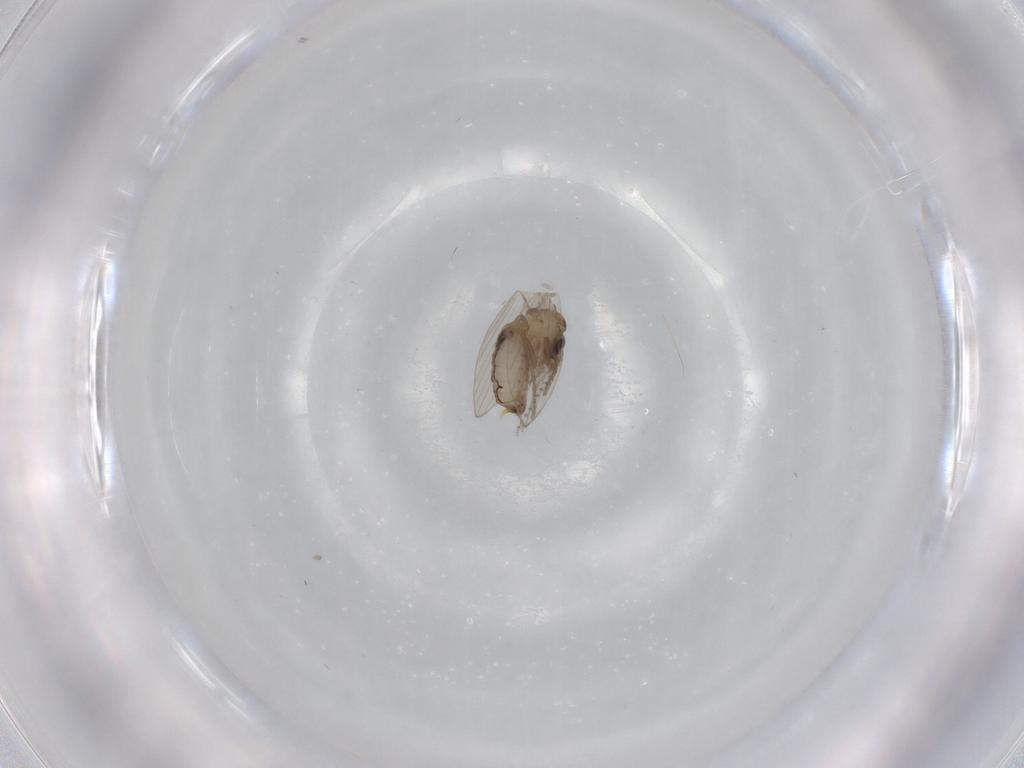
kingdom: Animalia
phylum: Arthropoda
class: Insecta
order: Diptera
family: Psychodidae
